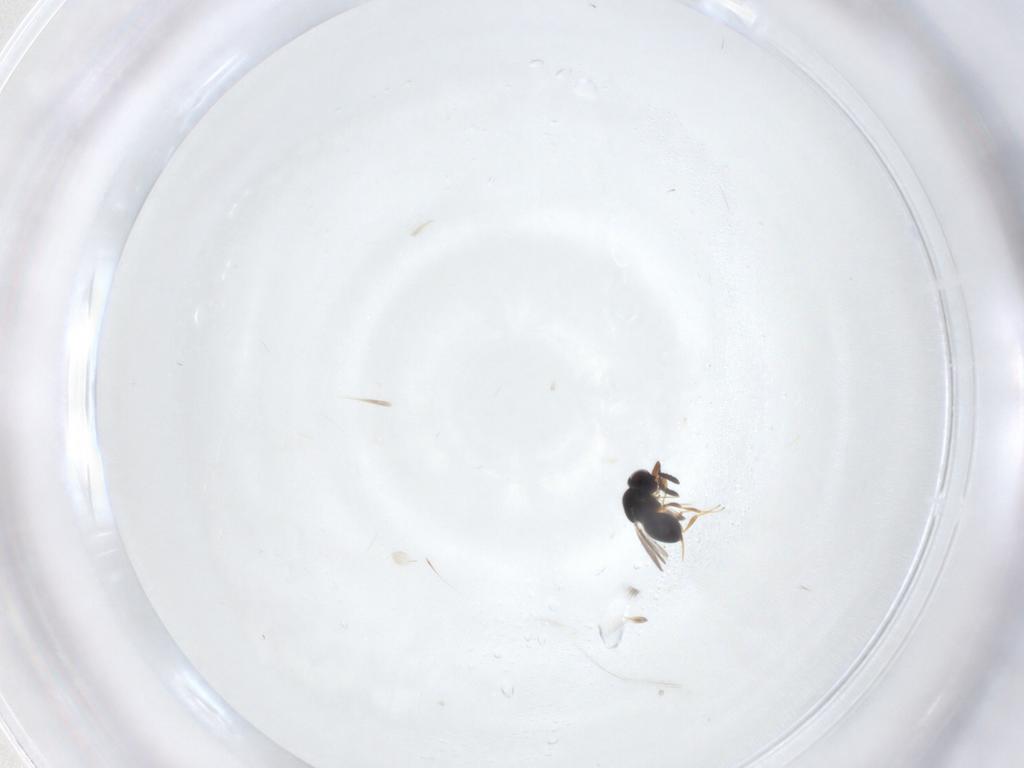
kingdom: Animalia
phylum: Arthropoda
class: Insecta
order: Hymenoptera
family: Ceraphronidae
